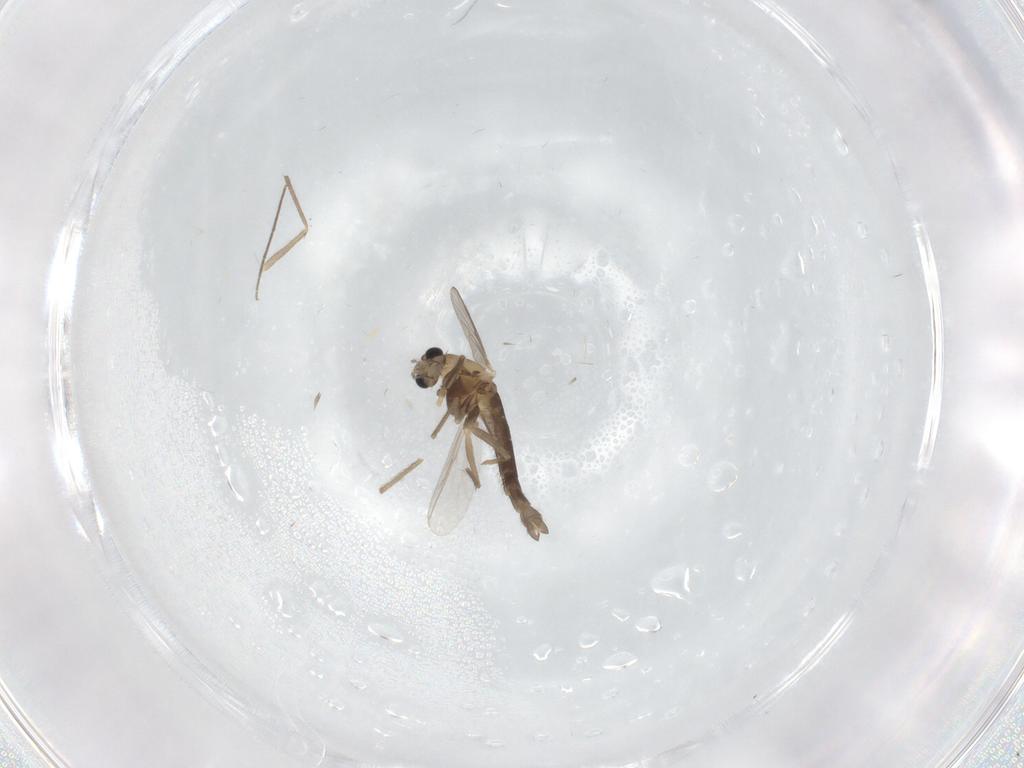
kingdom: Animalia
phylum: Arthropoda
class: Insecta
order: Diptera
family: Chironomidae
